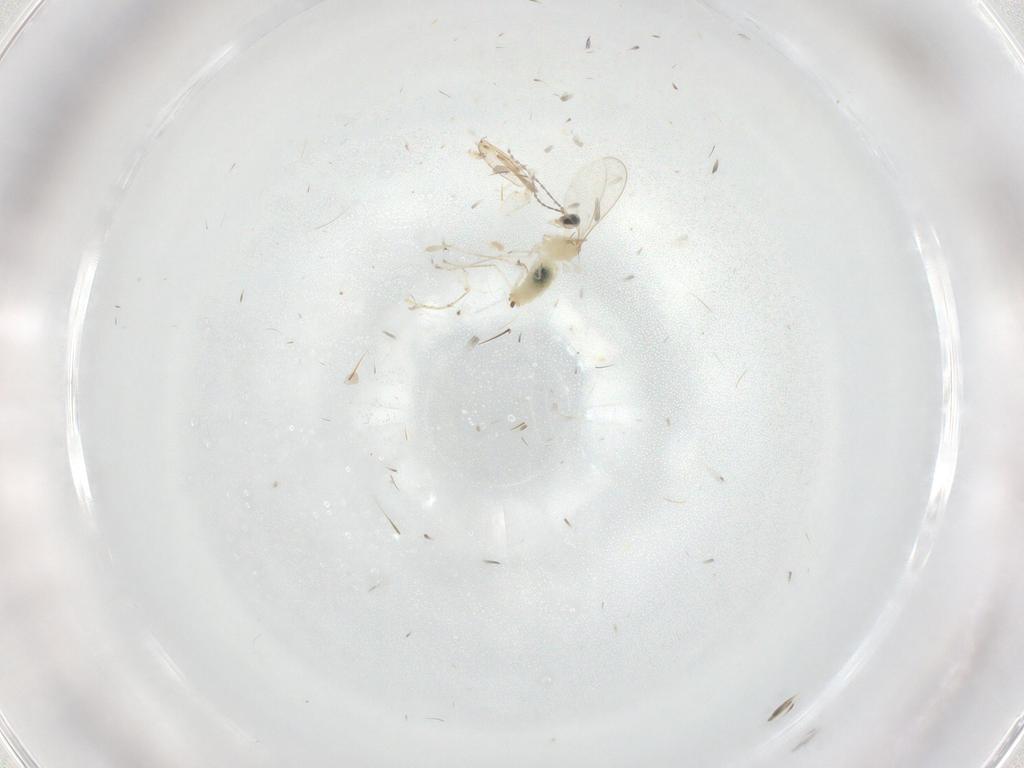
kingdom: Animalia
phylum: Arthropoda
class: Insecta
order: Diptera
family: Cecidomyiidae
